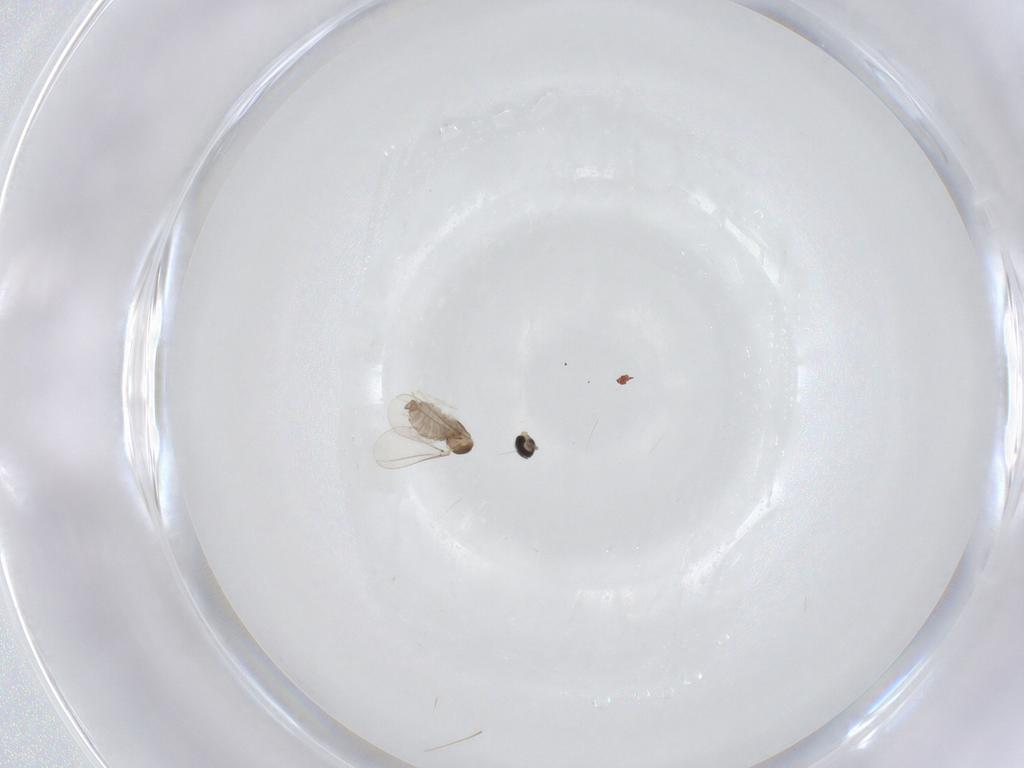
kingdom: Animalia
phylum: Arthropoda
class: Insecta
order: Diptera
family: Cecidomyiidae
